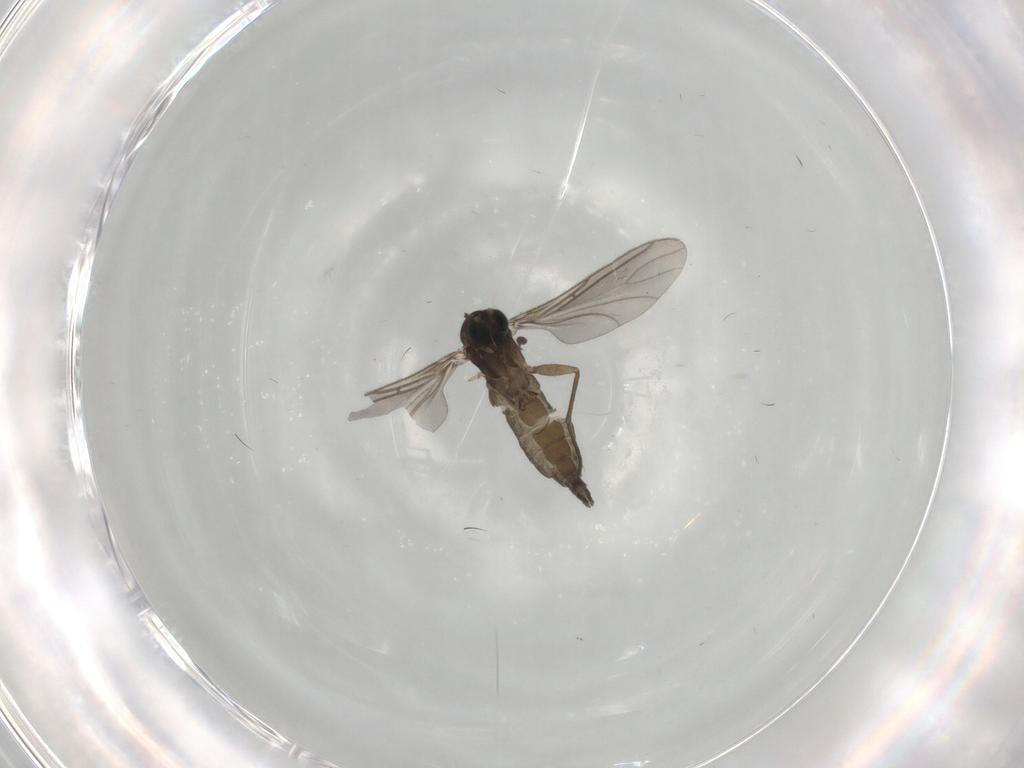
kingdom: Animalia
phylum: Arthropoda
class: Insecta
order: Diptera
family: Sciaridae
